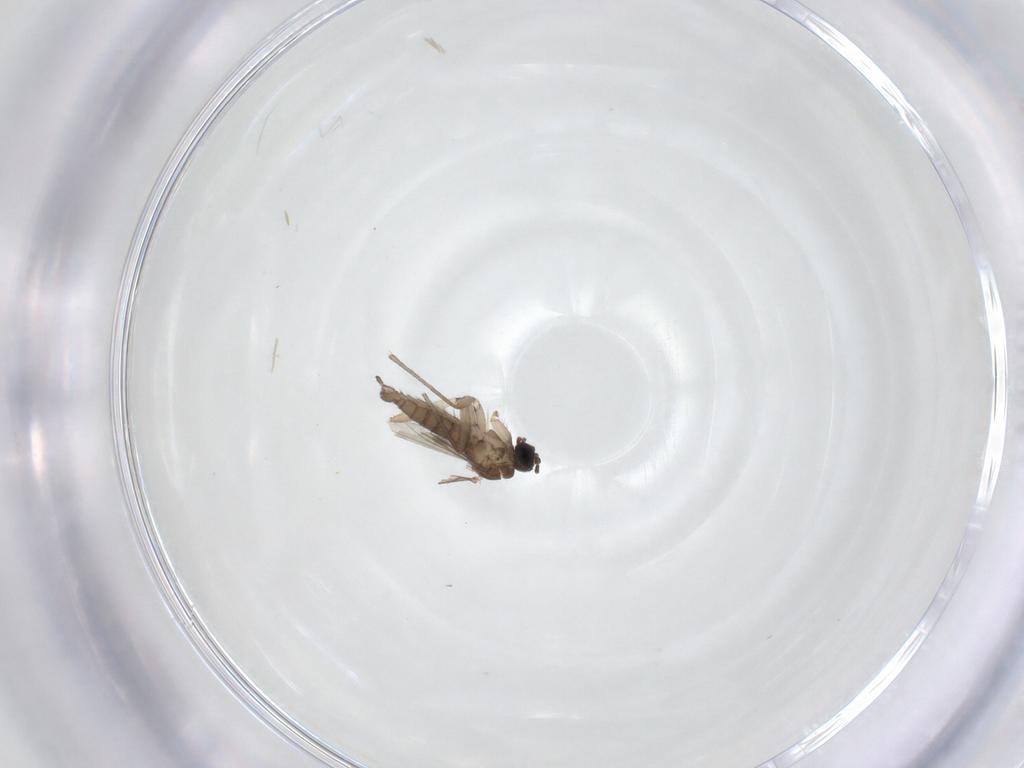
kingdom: Animalia
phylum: Arthropoda
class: Insecta
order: Diptera
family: Sciaridae
